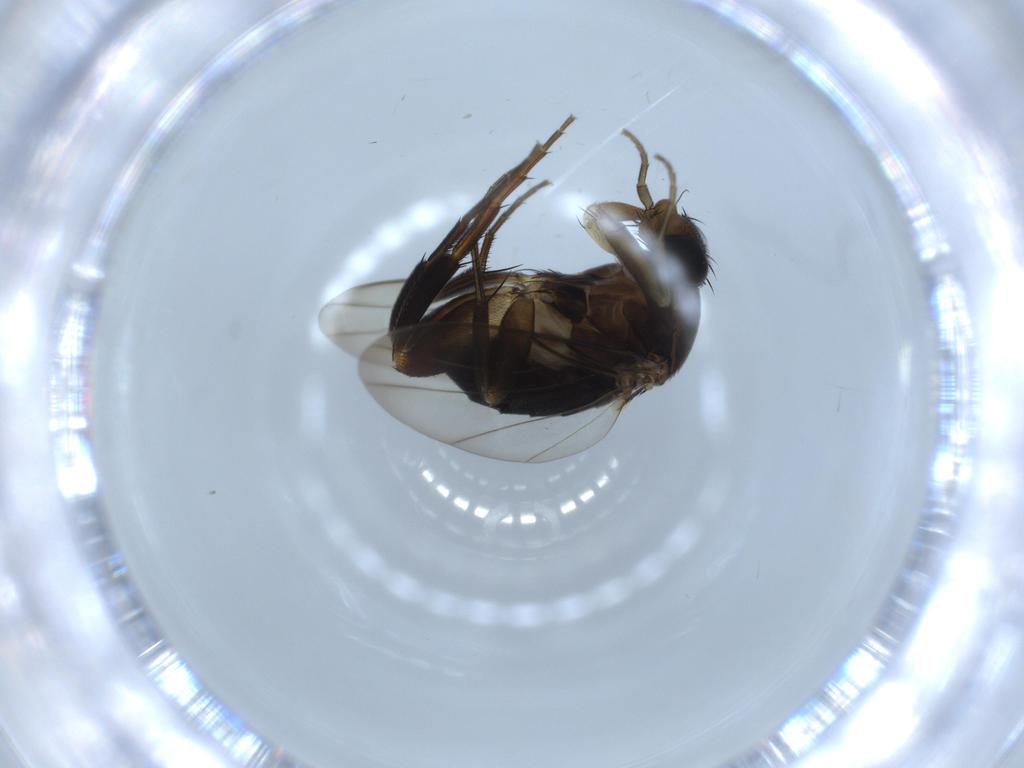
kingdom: Animalia
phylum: Arthropoda
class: Insecta
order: Diptera
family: Phoridae
